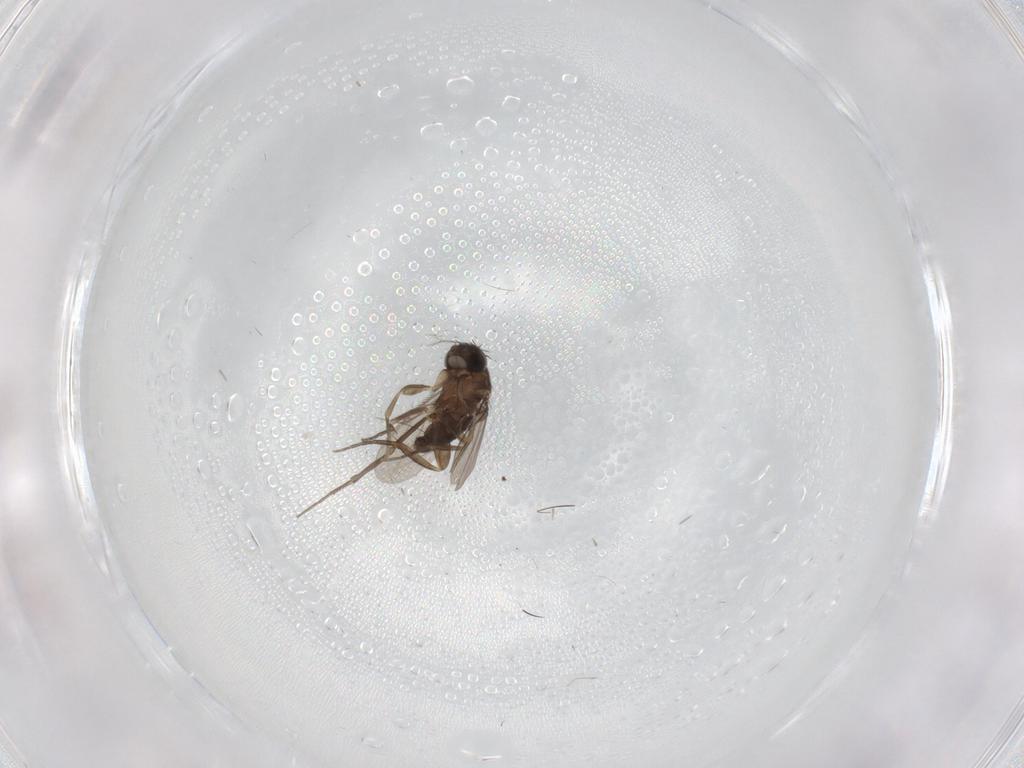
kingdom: Animalia
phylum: Arthropoda
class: Insecta
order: Diptera
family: Phoridae
